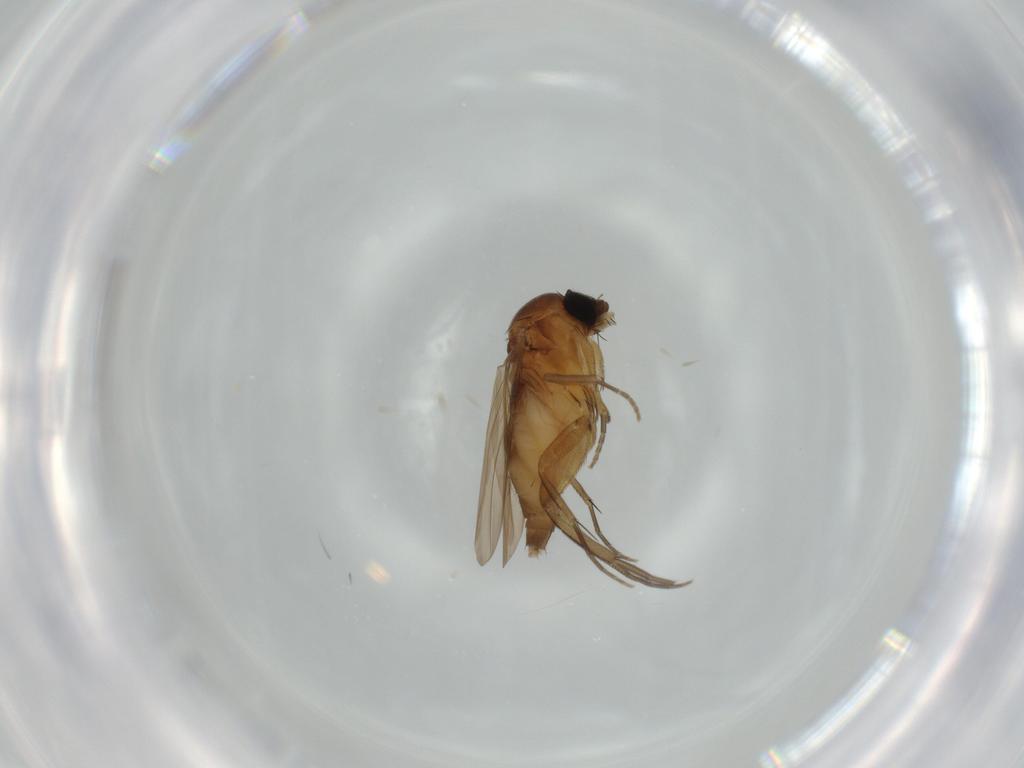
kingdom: Animalia
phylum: Arthropoda
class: Insecta
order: Diptera
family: Phoridae
